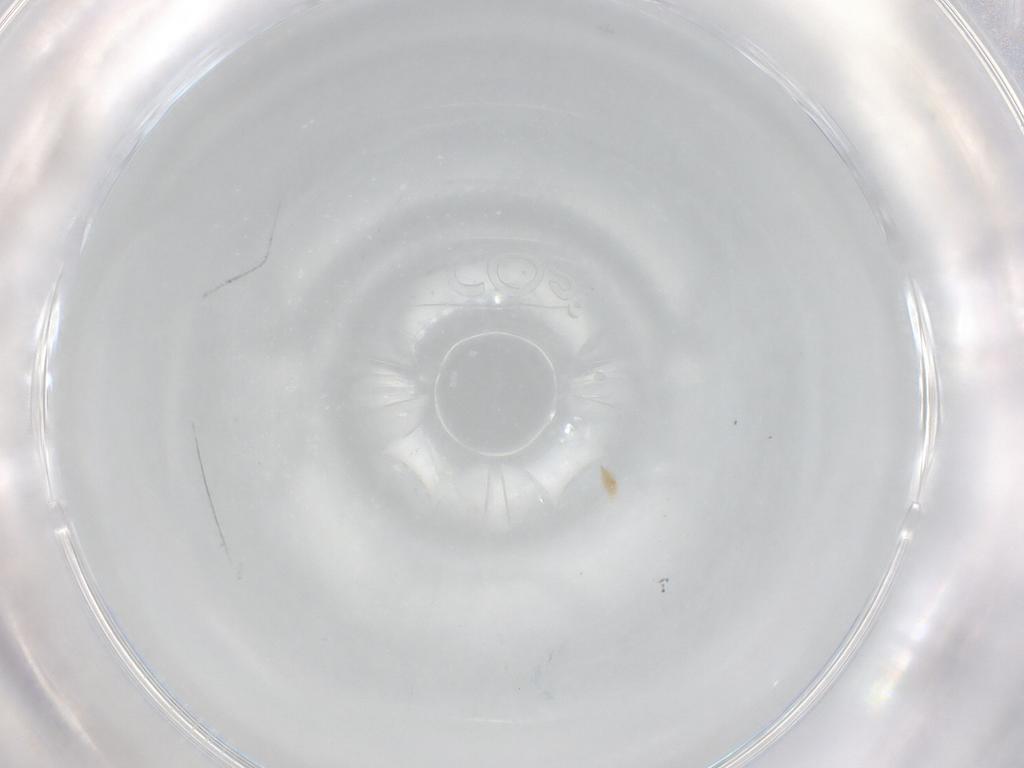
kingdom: Animalia
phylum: Arthropoda
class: Arachnida
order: Trombidiformes
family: Eupodidae
